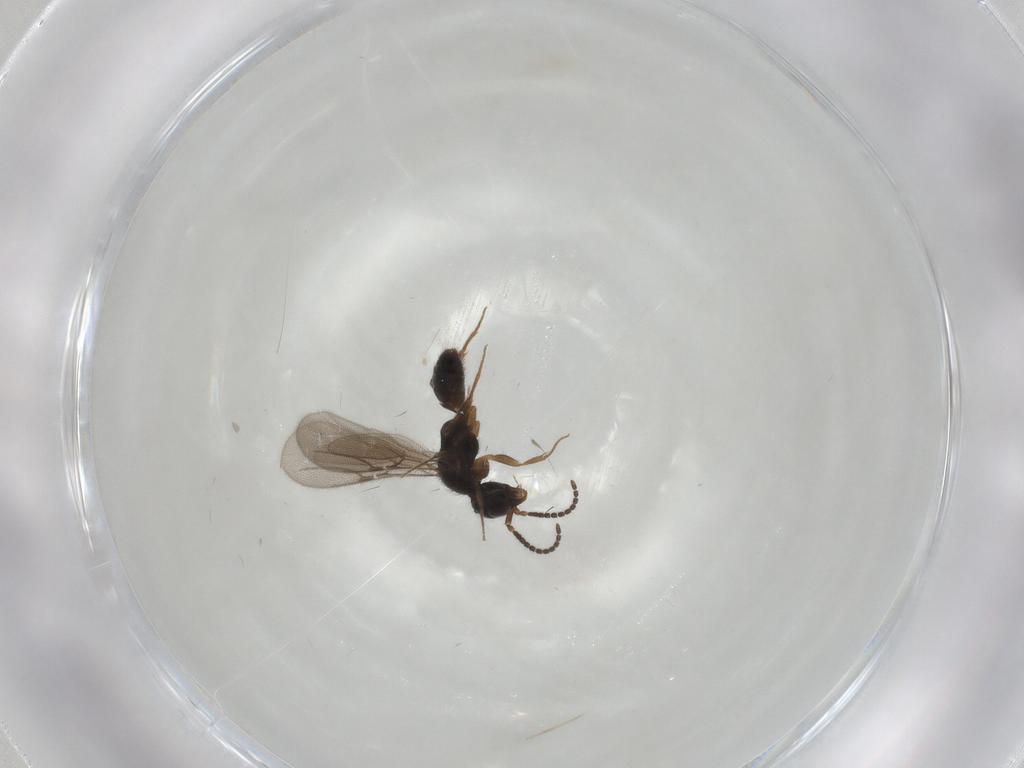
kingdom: Animalia
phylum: Arthropoda
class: Insecta
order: Hymenoptera
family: Bethylidae
